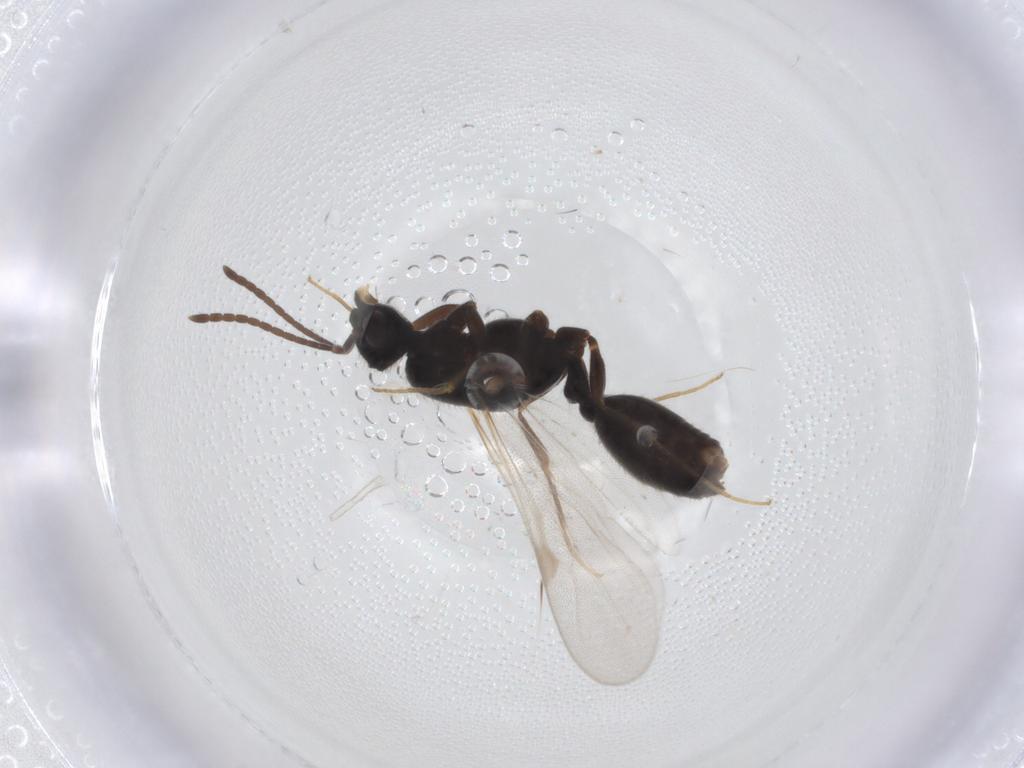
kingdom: Animalia
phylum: Arthropoda
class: Insecta
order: Hymenoptera
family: Formicidae
